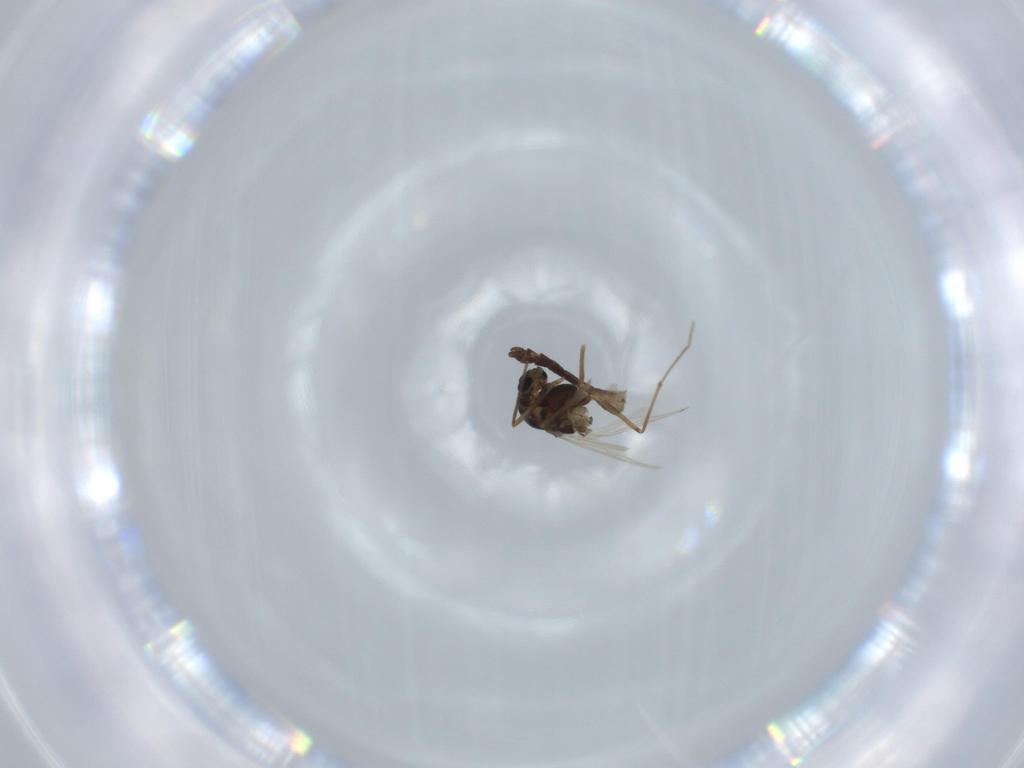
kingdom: Animalia
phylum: Arthropoda
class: Insecta
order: Diptera
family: Chironomidae
